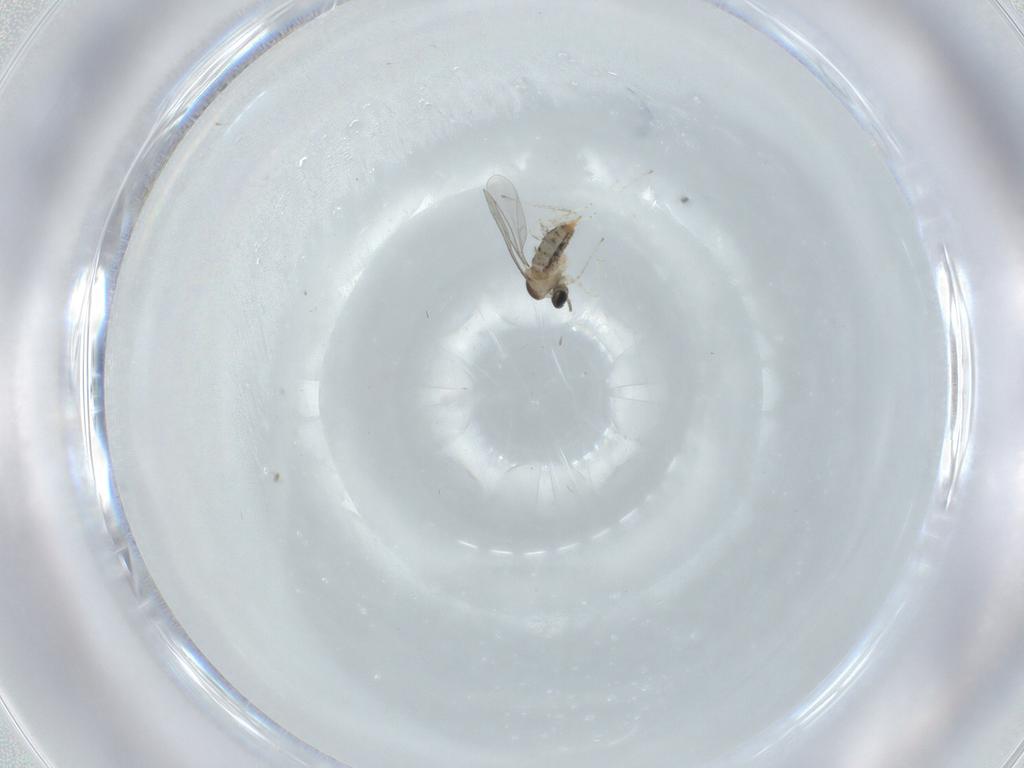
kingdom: Animalia
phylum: Arthropoda
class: Insecta
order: Diptera
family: Cecidomyiidae
